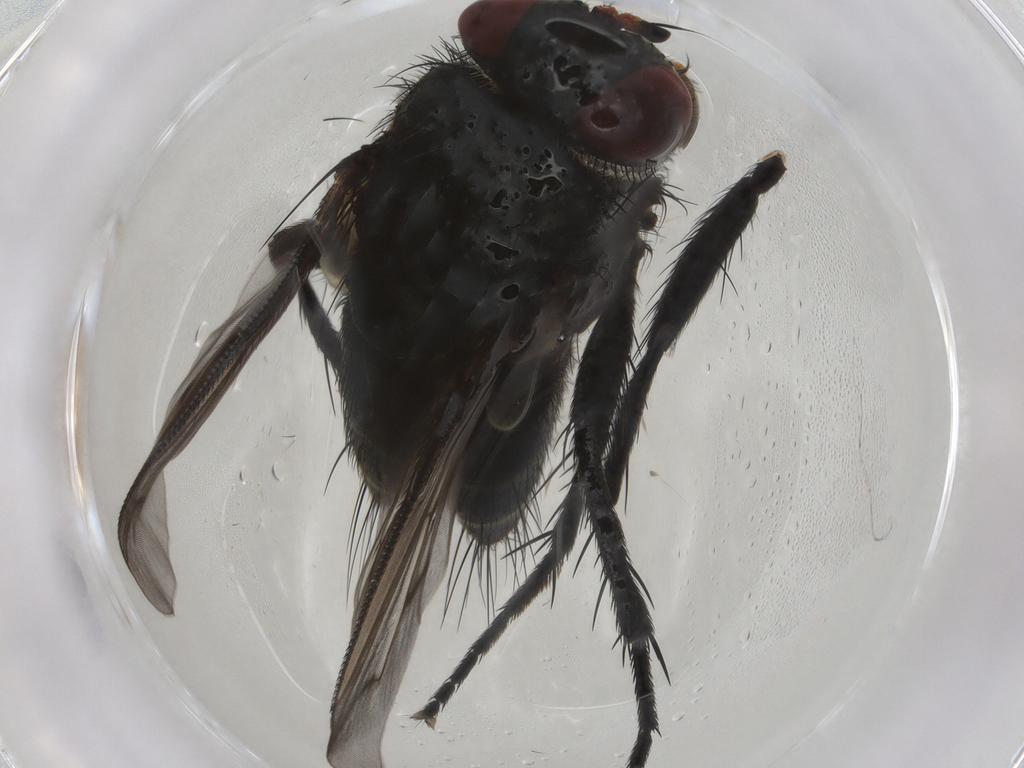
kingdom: Animalia
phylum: Arthropoda
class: Insecta
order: Diptera
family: Tachinidae
